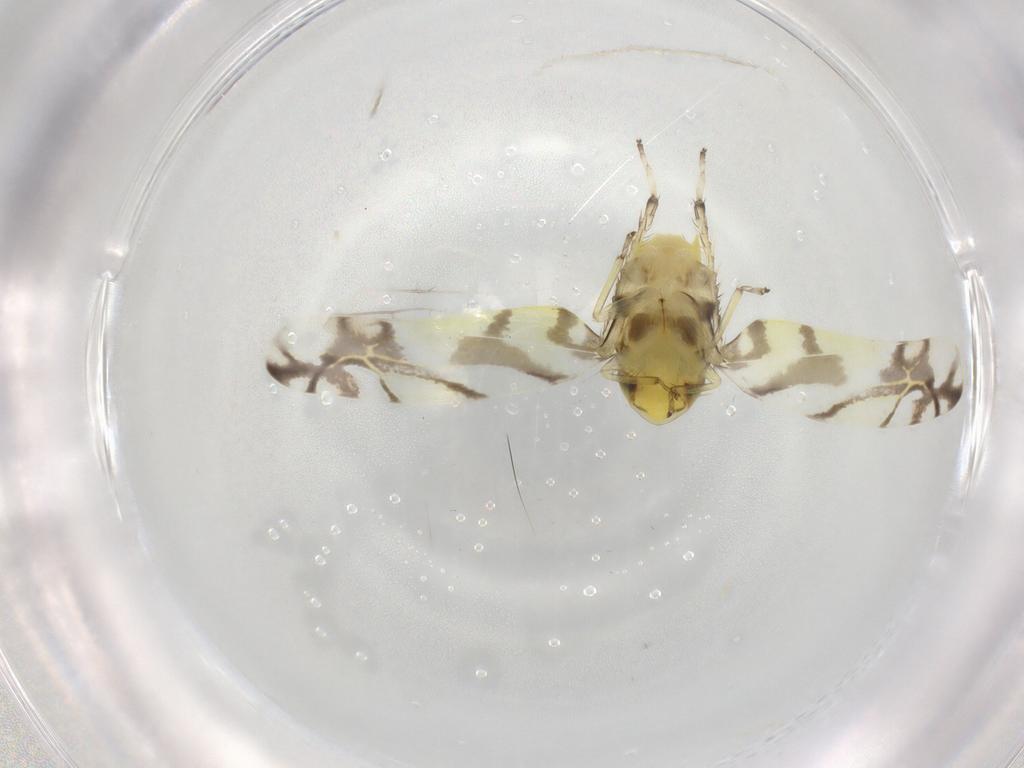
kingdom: Animalia
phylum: Arthropoda
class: Insecta
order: Hemiptera
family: Cicadellidae
